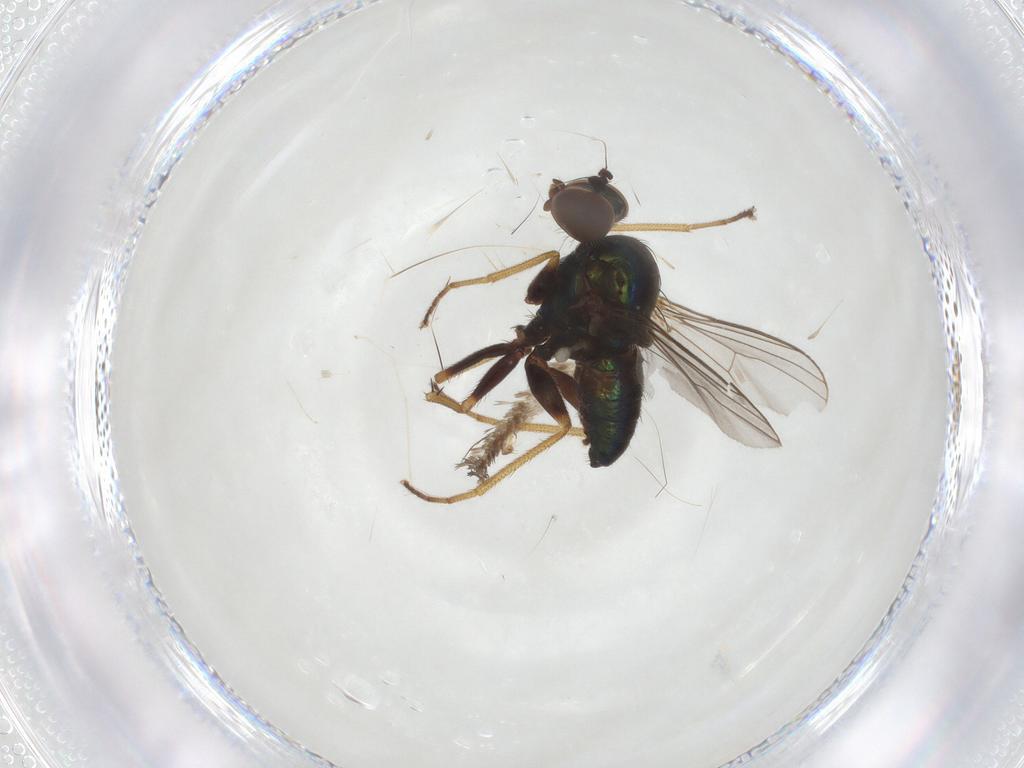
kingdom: Animalia
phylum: Arthropoda
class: Insecta
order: Diptera
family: Dolichopodidae
